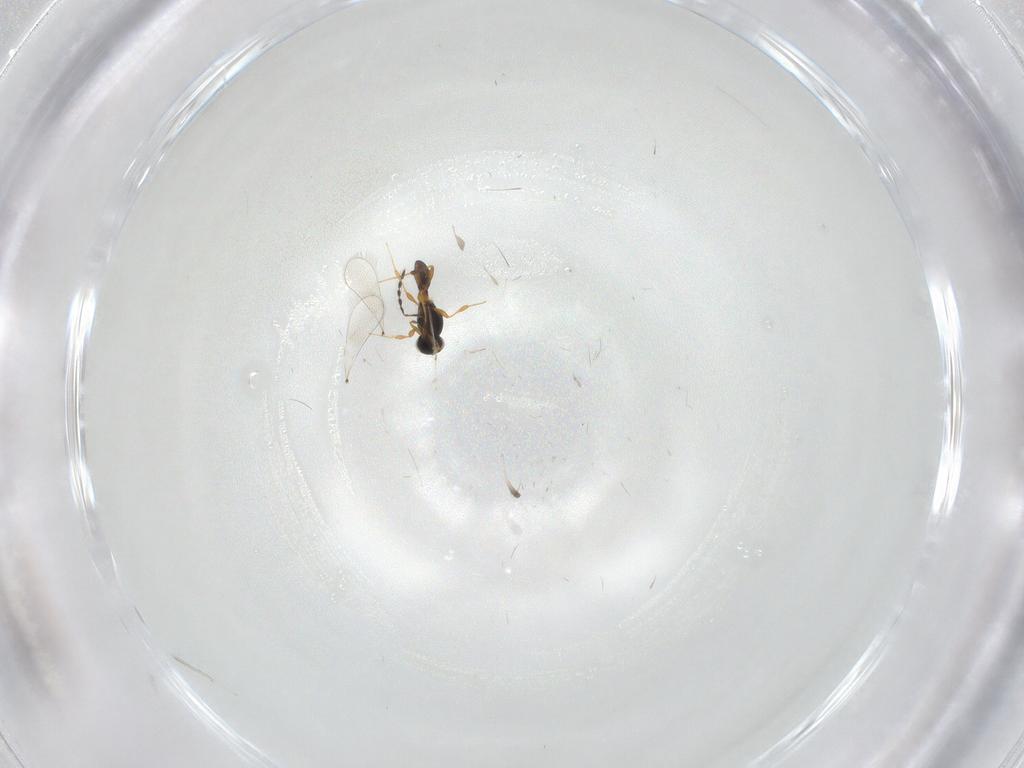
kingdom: Animalia
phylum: Arthropoda
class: Insecta
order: Hymenoptera
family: Platygastridae
